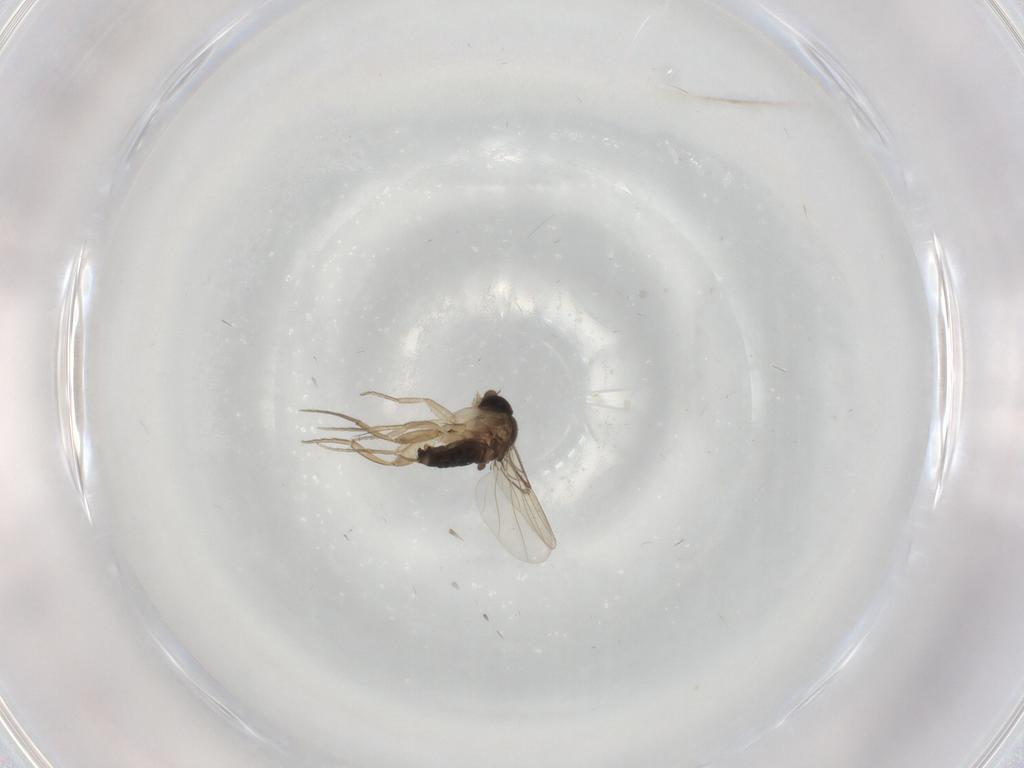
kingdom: Animalia
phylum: Arthropoda
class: Insecta
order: Diptera
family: Phoridae
